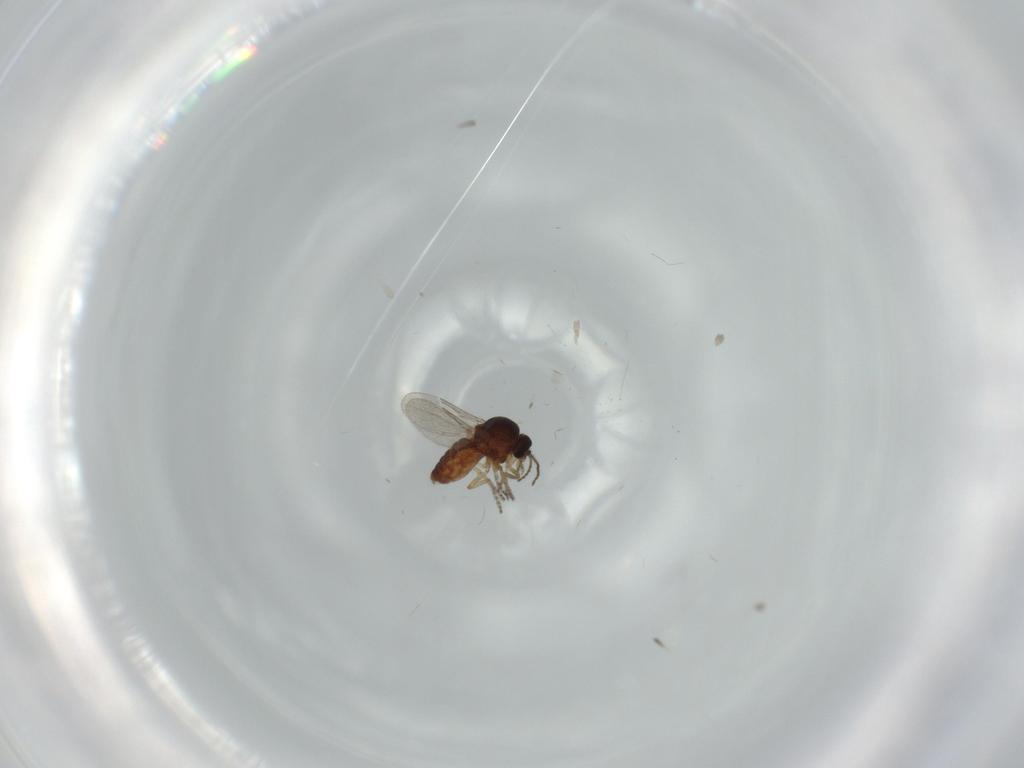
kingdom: Animalia
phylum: Arthropoda
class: Insecta
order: Diptera
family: Ceratopogonidae
